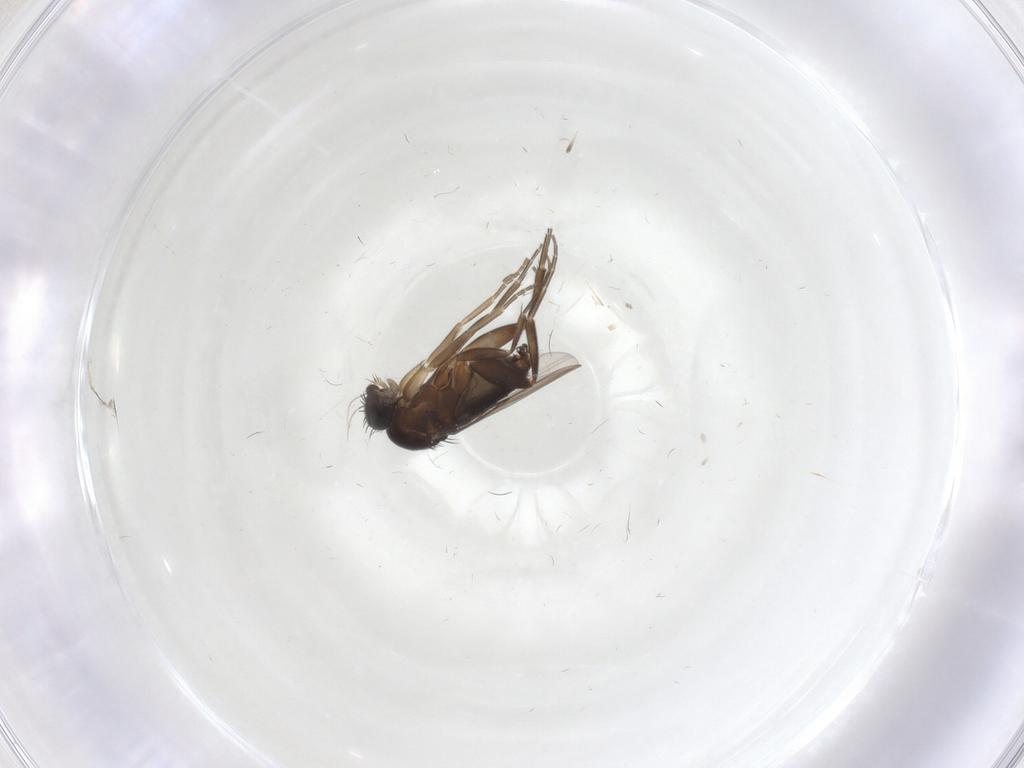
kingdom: Animalia
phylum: Arthropoda
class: Insecta
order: Diptera
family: Phoridae
